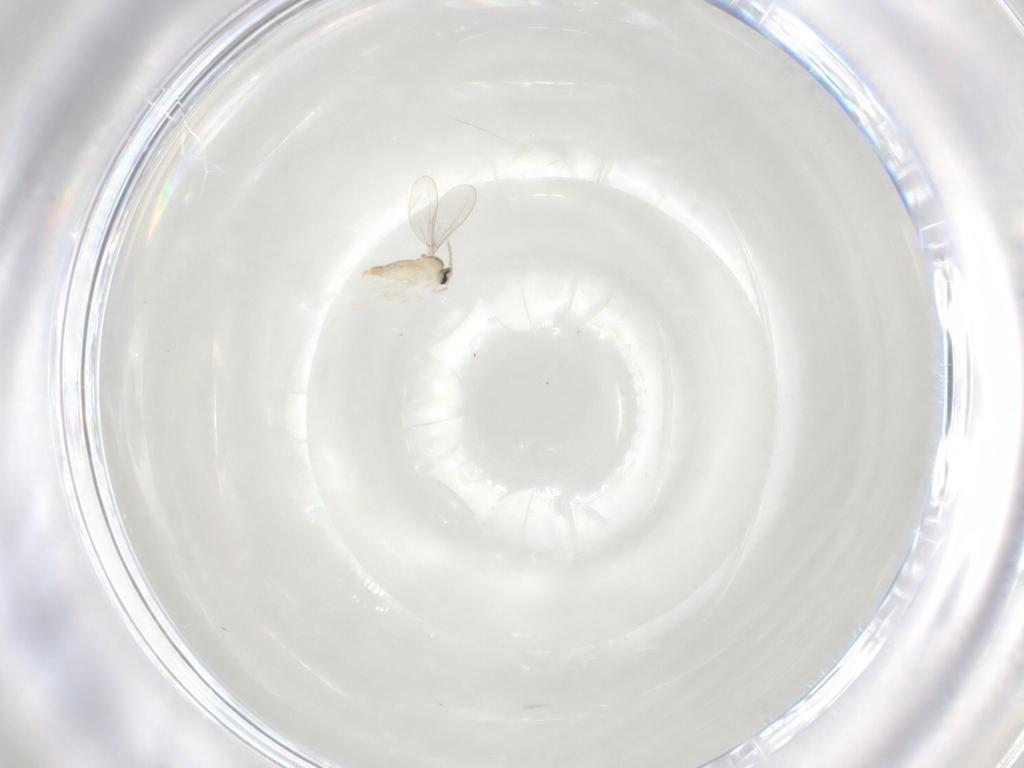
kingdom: Animalia
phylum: Arthropoda
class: Insecta
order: Diptera
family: Cecidomyiidae
